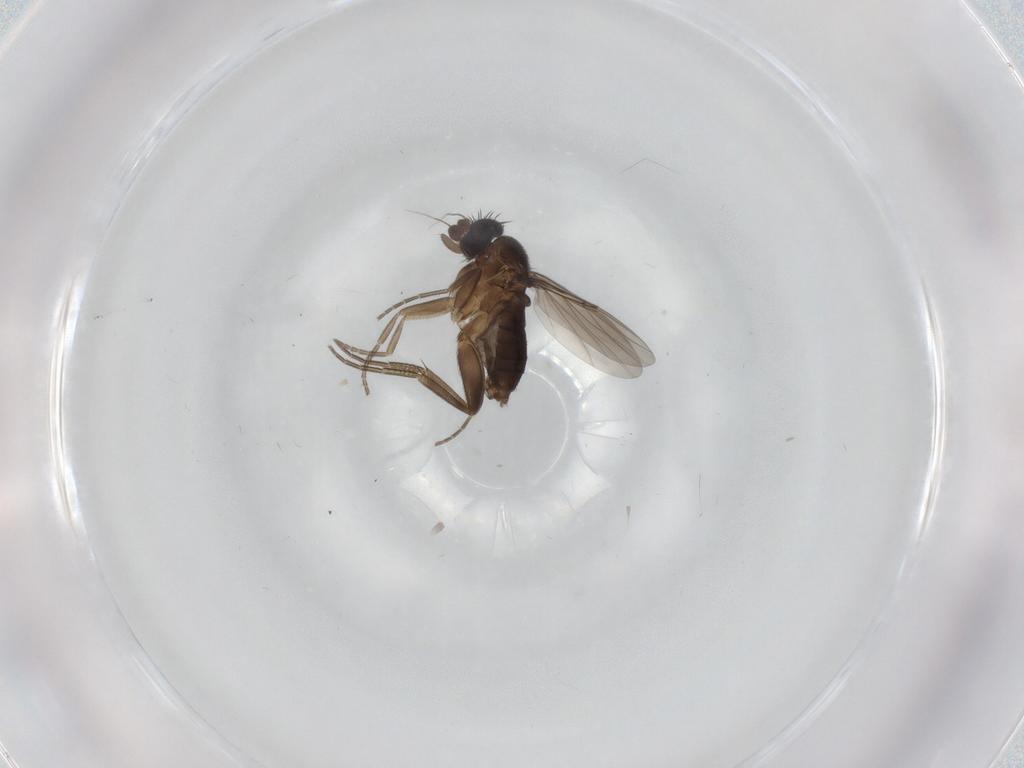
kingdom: Animalia
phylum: Arthropoda
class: Insecta
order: Diptera
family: Phoridae
